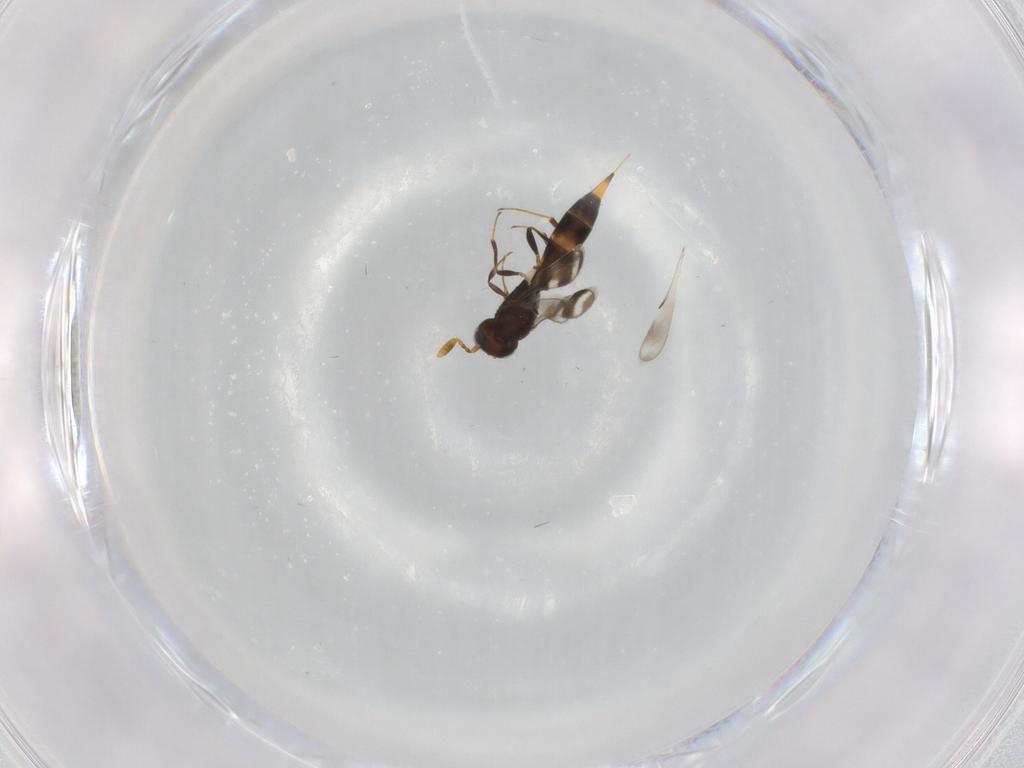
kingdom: Animalia
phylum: Arthropoda
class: Insecta
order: Hymenoptera
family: Scelionidae
